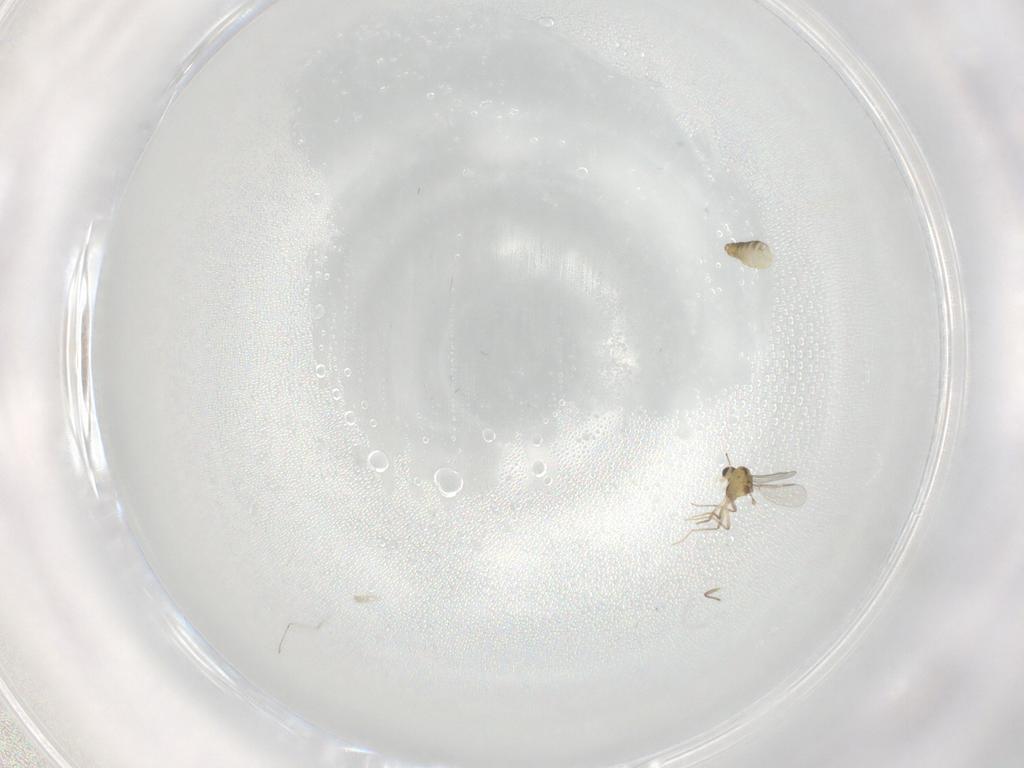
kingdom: Animalia
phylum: Arthropoda
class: Insecta
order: Diptera
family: Chironomidae
